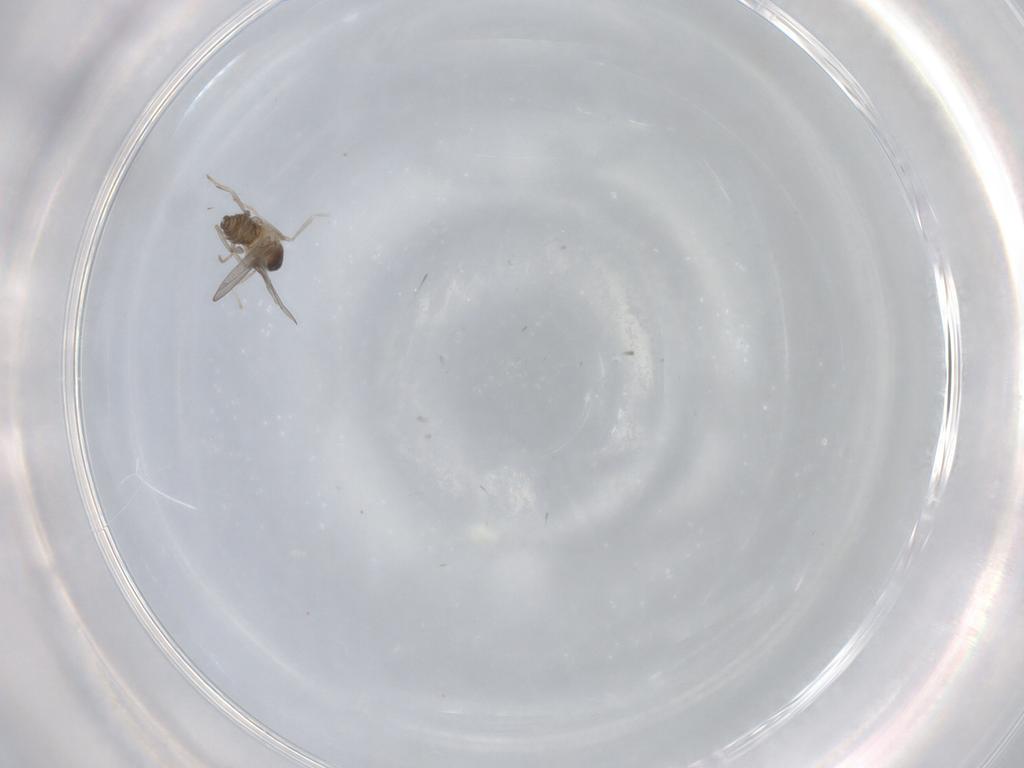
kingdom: Animalia
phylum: Arthropoda
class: Insecta
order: Diptera
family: Cecidomyiidae
